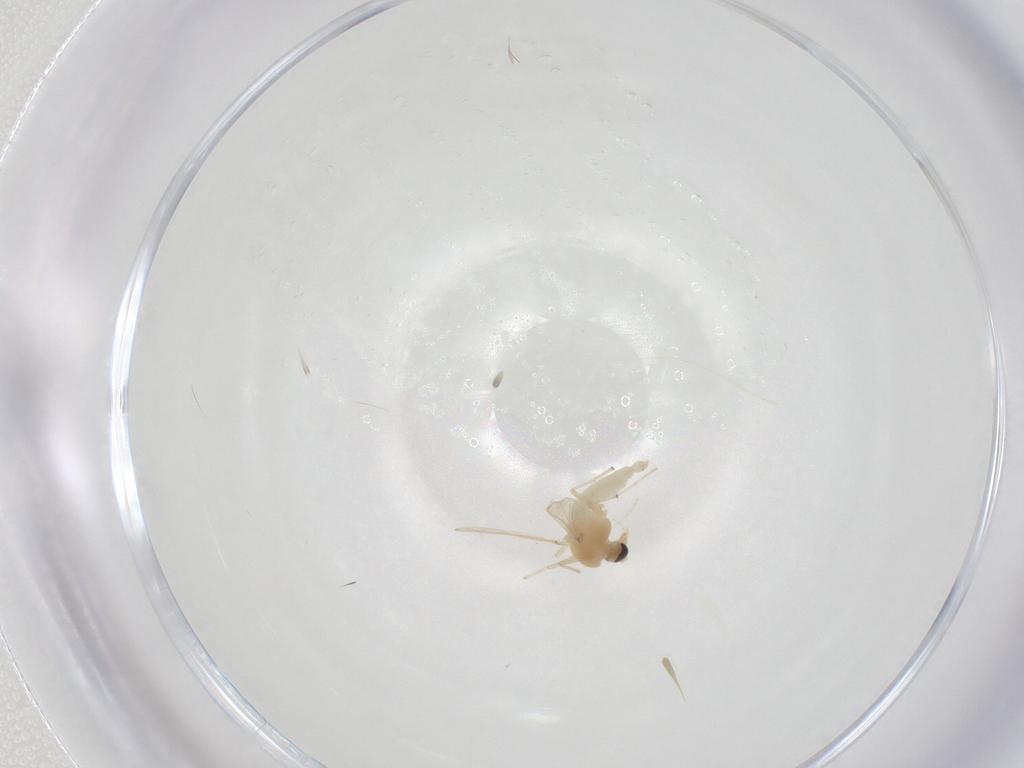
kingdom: Animalia
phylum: Arthropoda
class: Insecta
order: Diptera
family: Chironomidae
